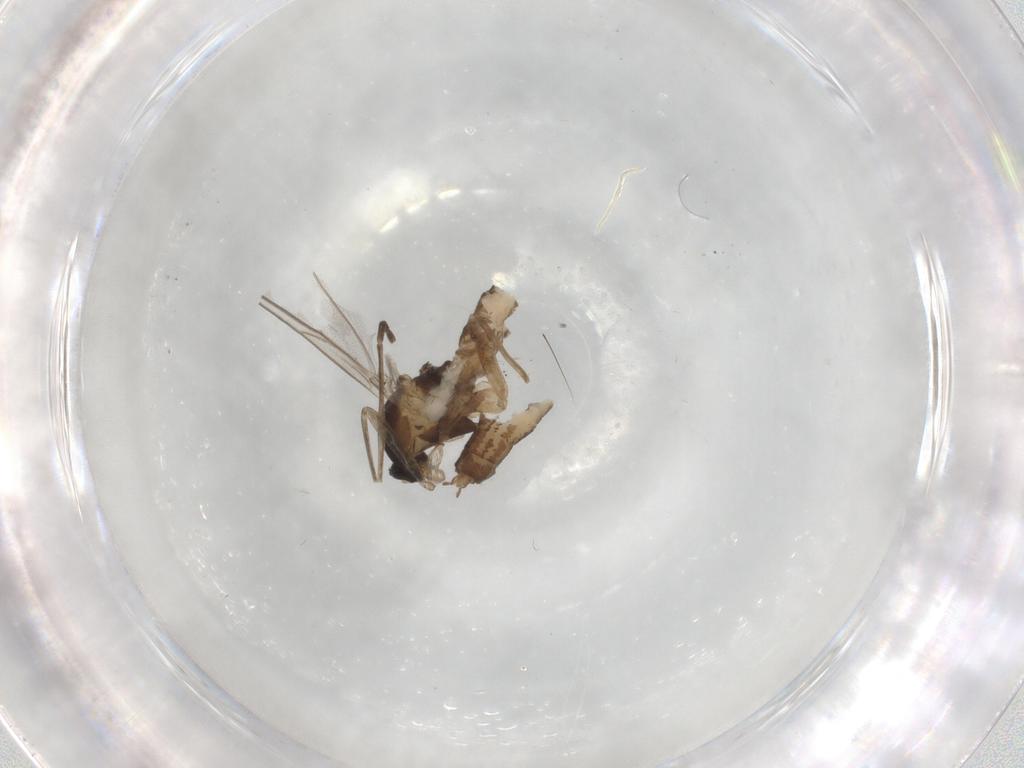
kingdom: Animalia
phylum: Arthropoda
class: Insecta
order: Diptera
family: Cecidomyiidae
